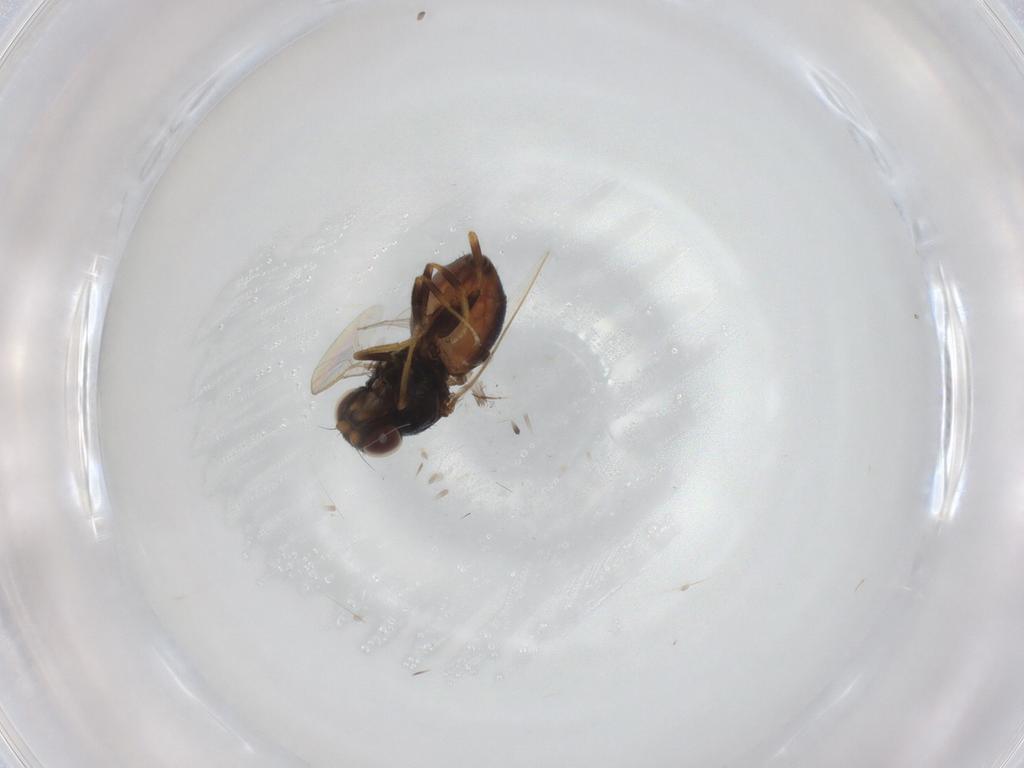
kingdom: Animalia
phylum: Arthropoda
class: Insecta
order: Diptera
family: Chloropidae
